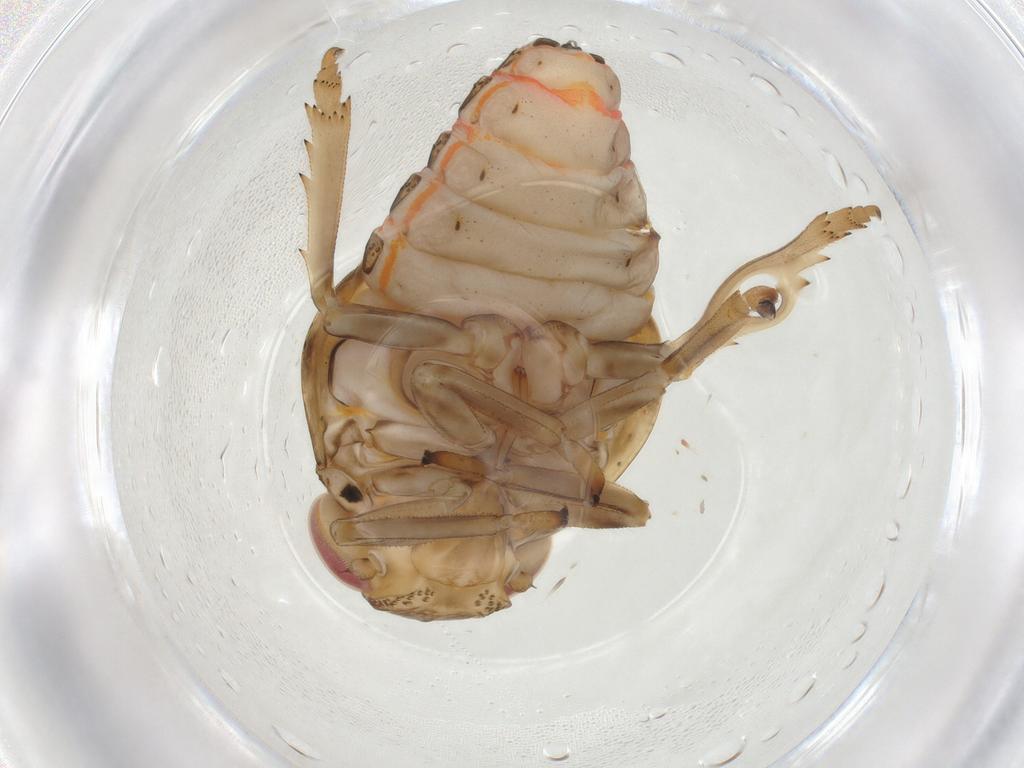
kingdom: Animalia
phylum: Arthropoda
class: Insecta
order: Hemiptera
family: Issidae
